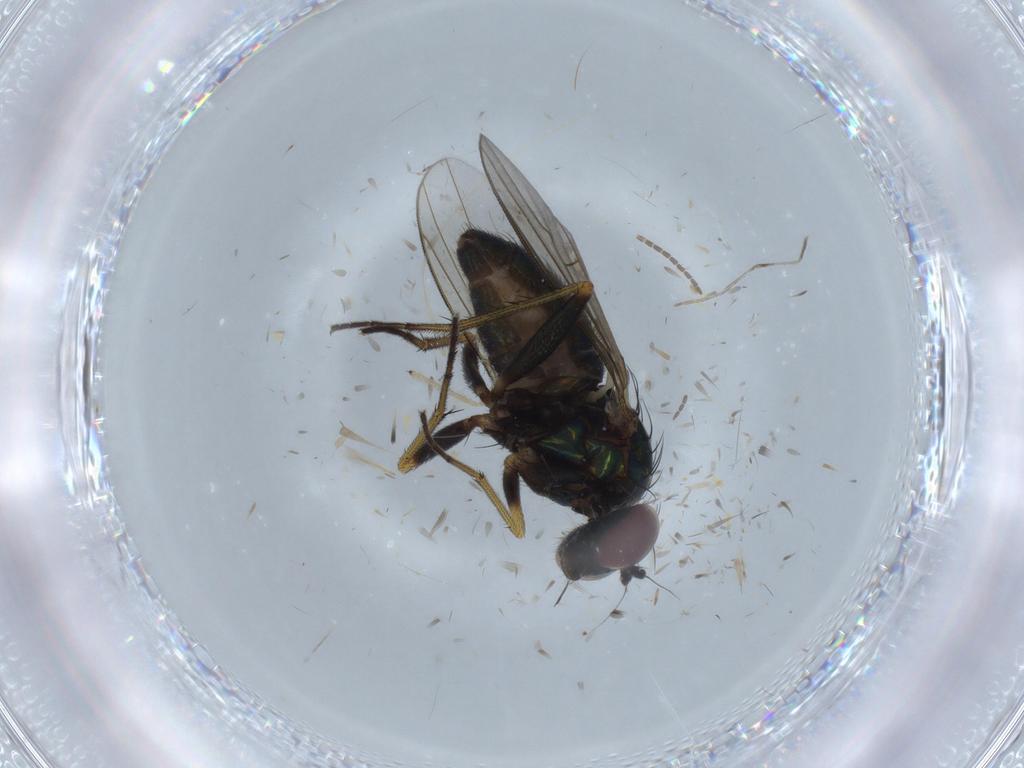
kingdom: Animalia
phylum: Arthropoda
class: Insecta
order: Diptera
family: Dolichopodidae
